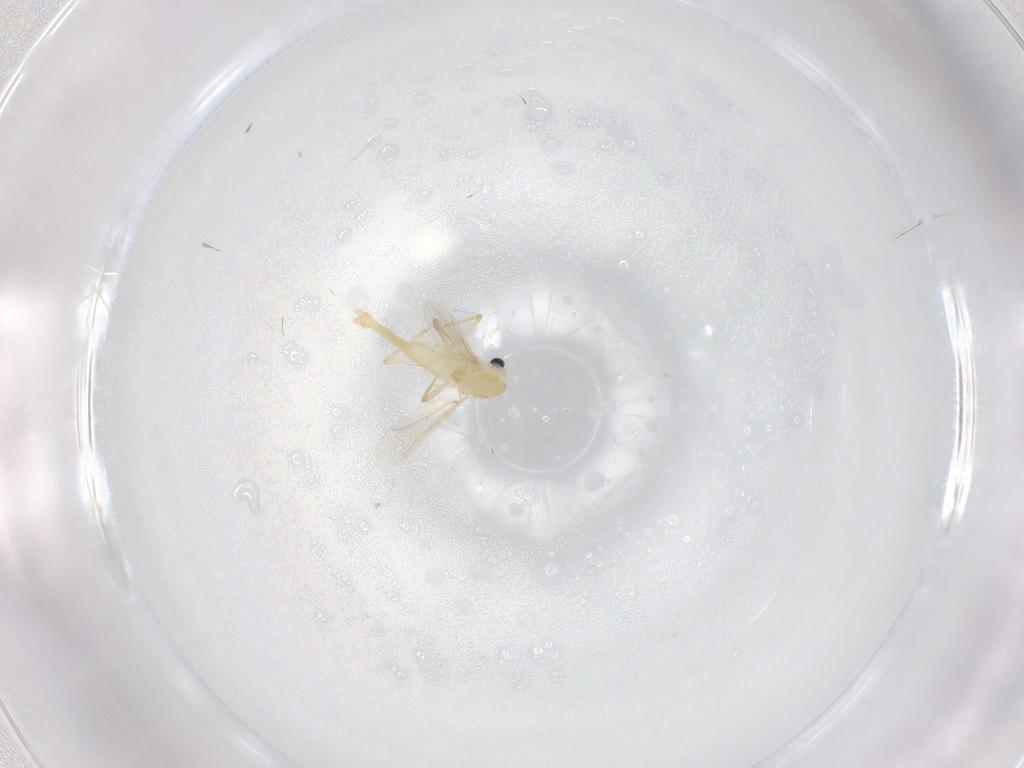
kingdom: Animalia
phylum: Arthropoda
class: Insecta
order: Diptera
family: Chironomidae
